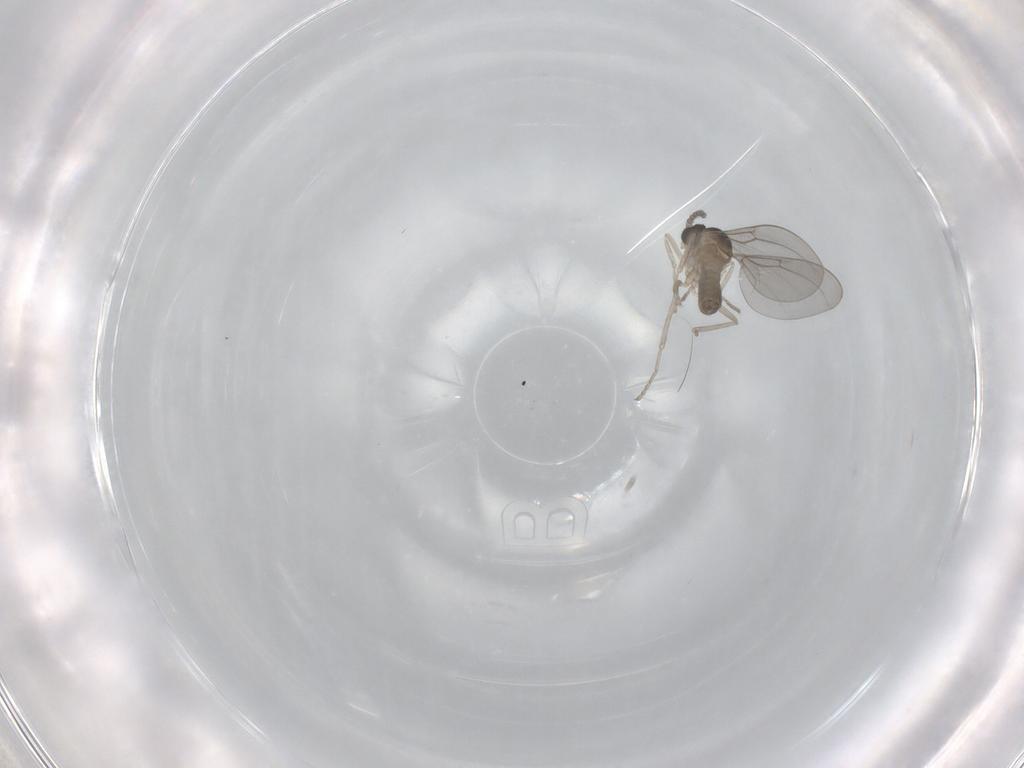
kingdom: Animalia
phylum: Arthropoda
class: Insecta
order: Diptera
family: Cecidomyiidae
